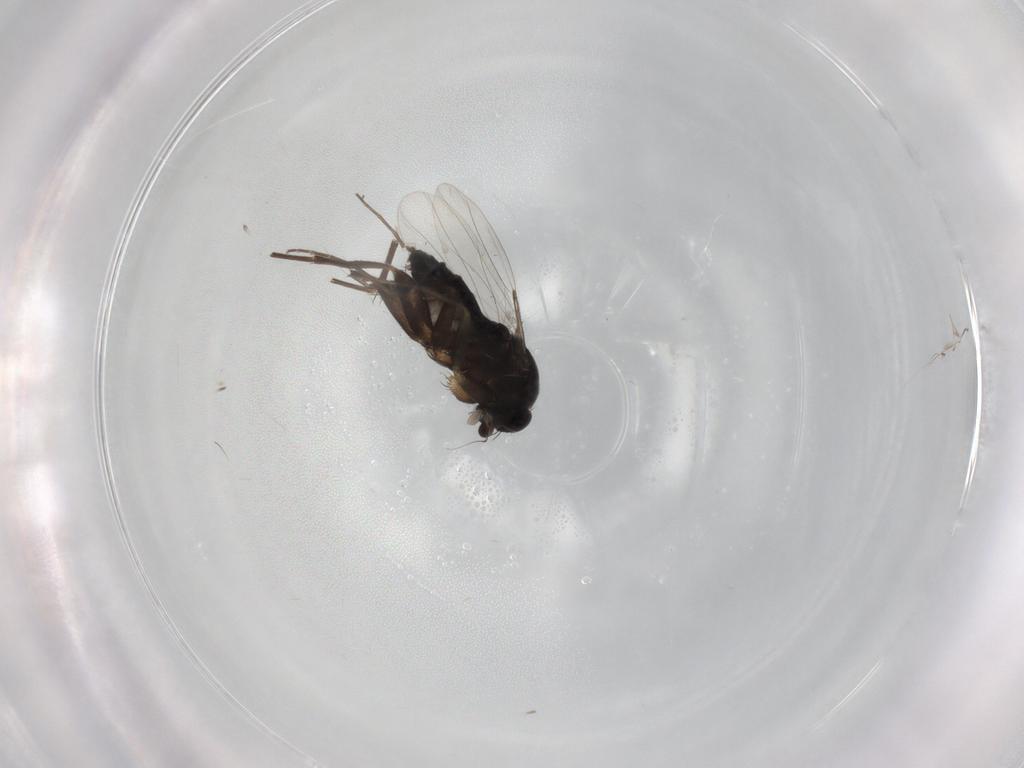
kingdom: Animalia
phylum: Arthropoda
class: Insecta
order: Diptera
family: Phoridae
